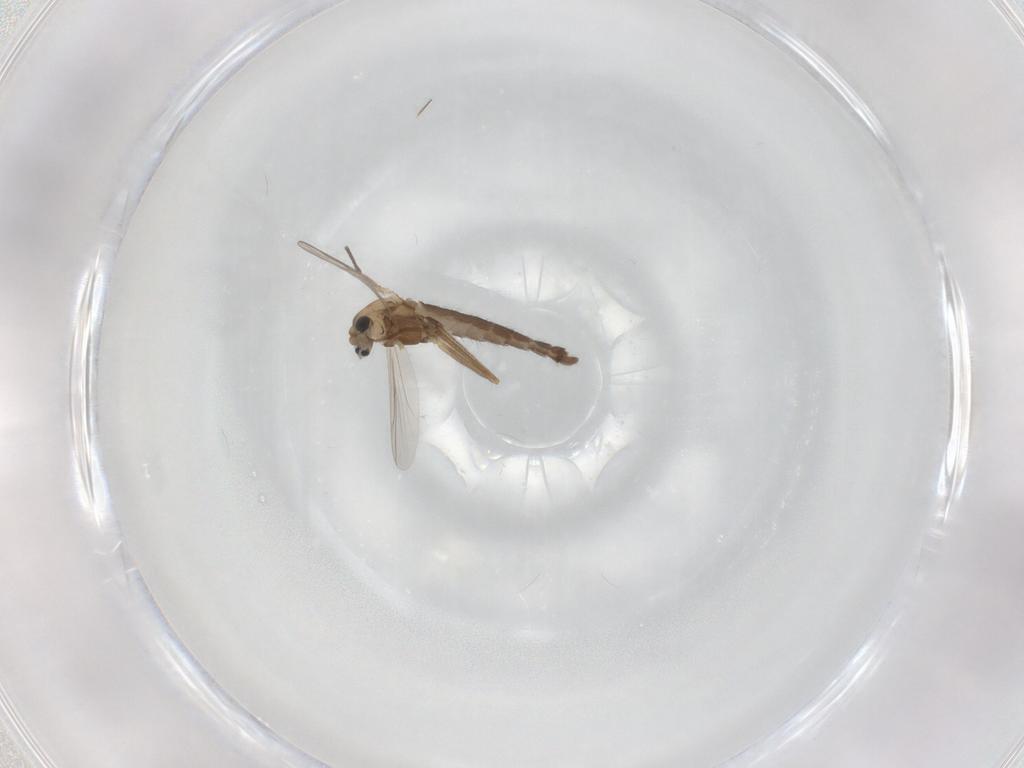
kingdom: Animalia
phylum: Arthropoda
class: Insecta
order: Diptera
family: Chironomidae
